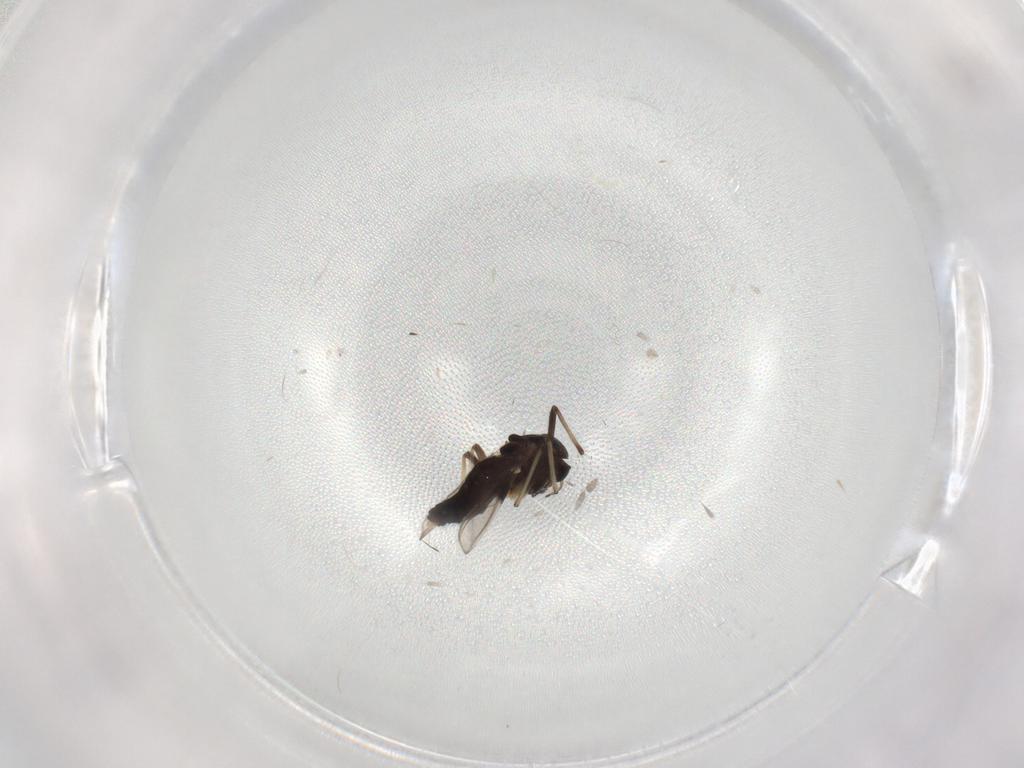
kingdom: Animalia
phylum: Arthropoda
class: Insecta
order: Diptera
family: Chironomidae
